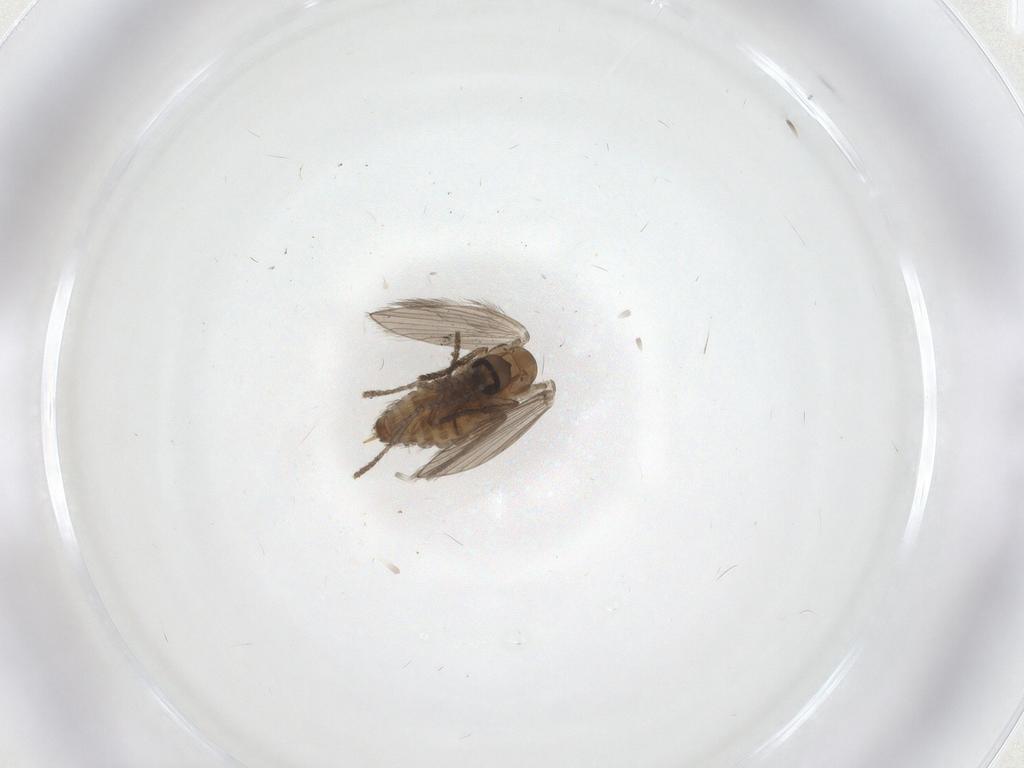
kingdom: Animalia
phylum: Arthropoda
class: Insecta
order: Diptera
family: Psychodidae
